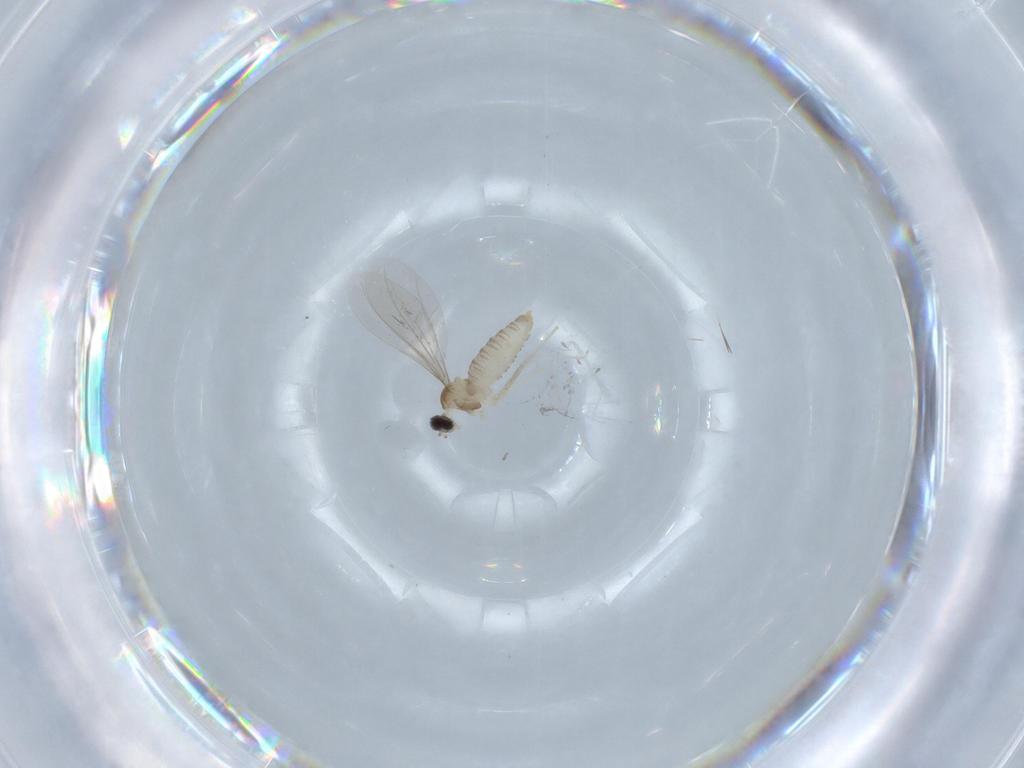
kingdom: Animalia
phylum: Arthropoda
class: Insecta
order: Diptera
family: Cecidomyiidae
